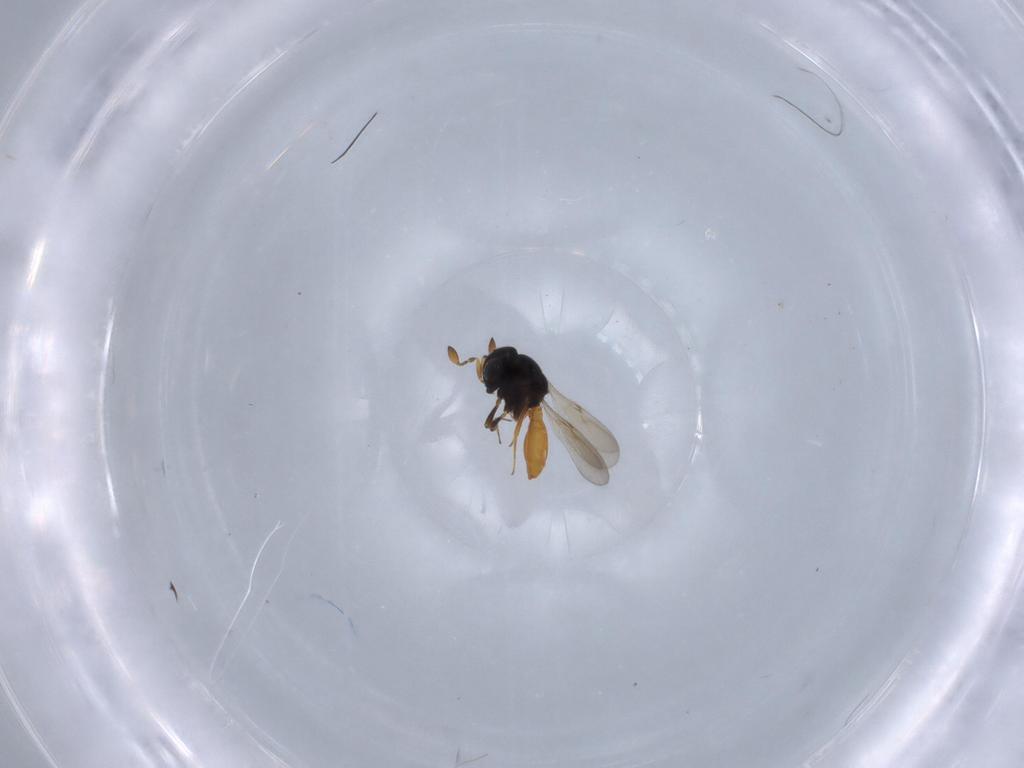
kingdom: Animalia
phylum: Arthropoda
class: Insecta
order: Hymenoptera
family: Scelionidae
